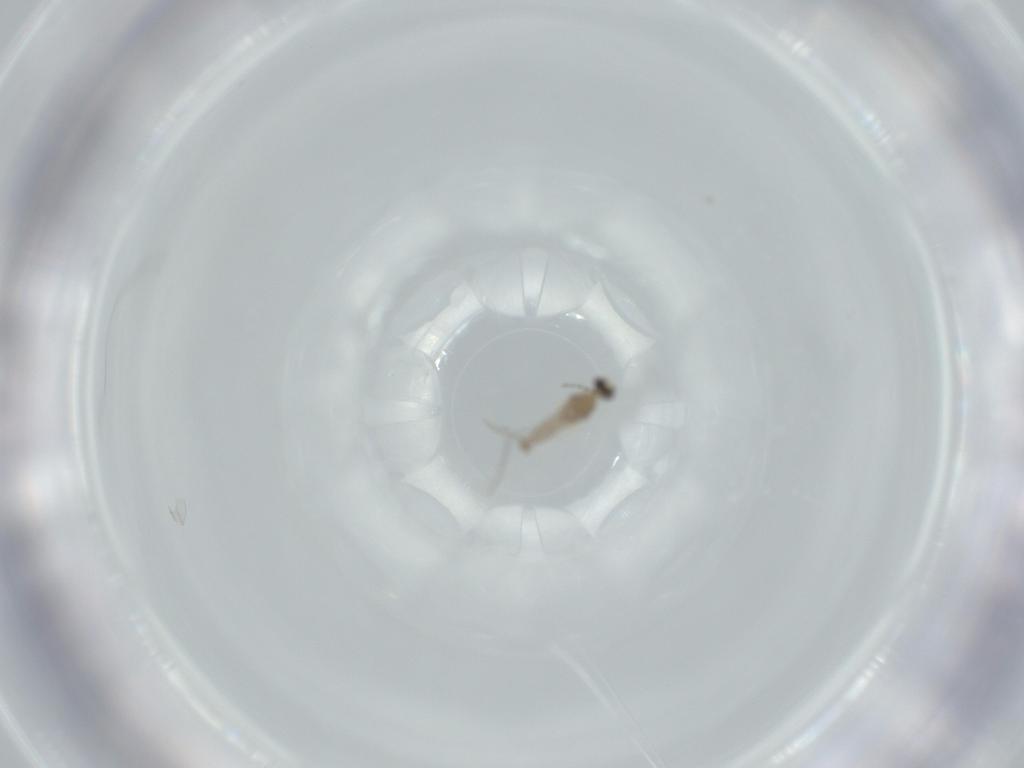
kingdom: Animalia
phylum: Arthropoda
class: Insecta
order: Diptera
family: Cecidomyiidae
